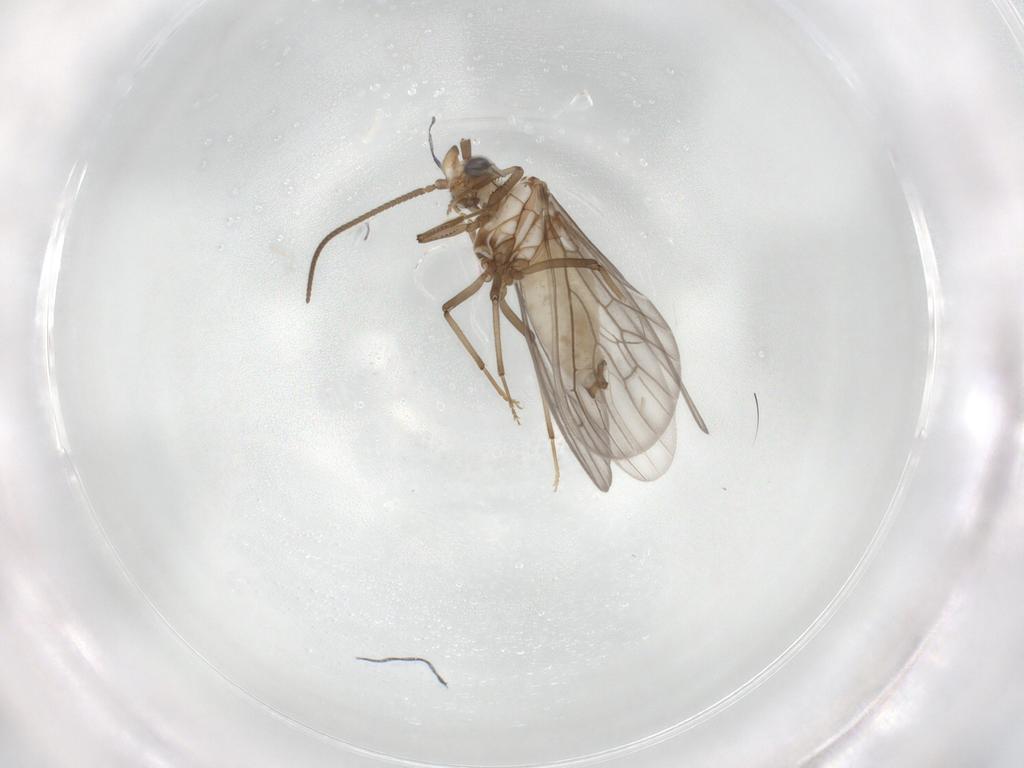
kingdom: Animalia
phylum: Arthropoda
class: Insecta
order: Neuroptera
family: Coniopterygidae
